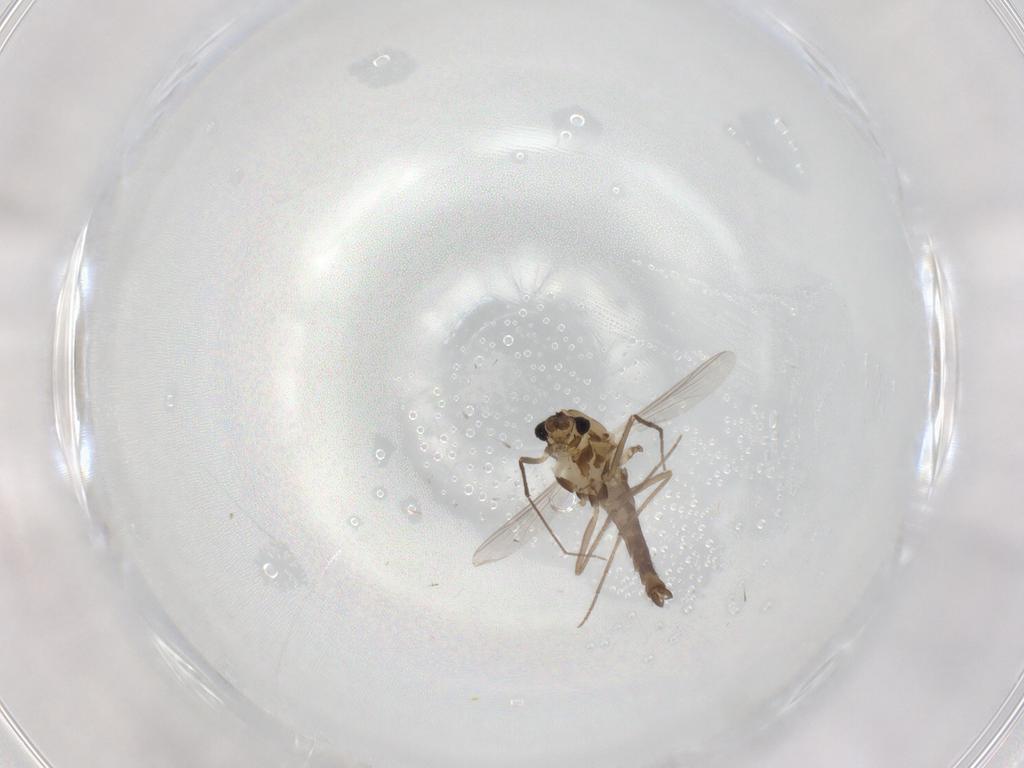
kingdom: Animalia
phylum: Arthropoda
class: Insecta
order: Diptera
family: Chironomidae
